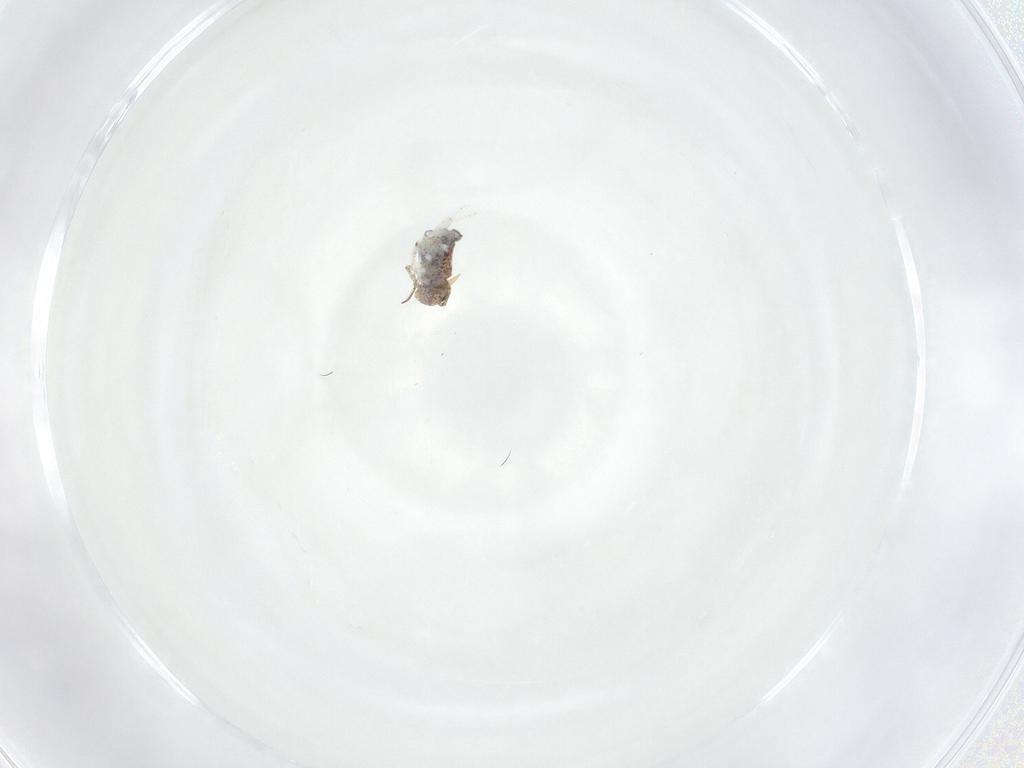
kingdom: Animalia
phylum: Arthropoda
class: Collembola
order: Symphypleona
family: Bourletiellidae
